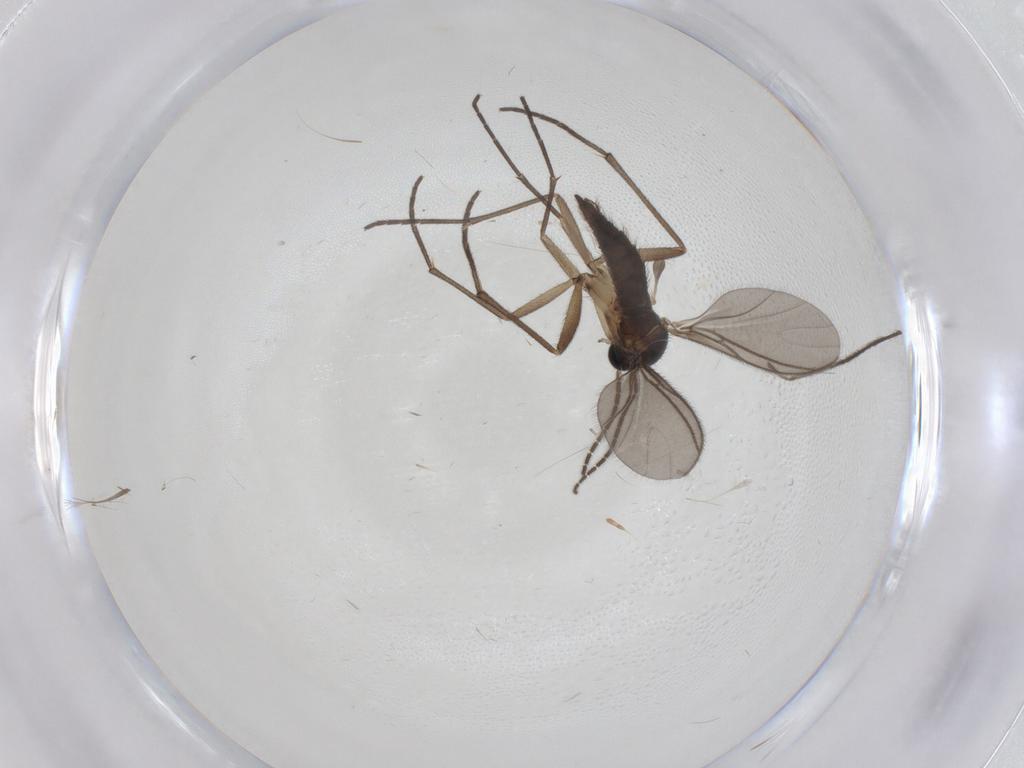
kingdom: Animalia
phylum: Arthropoda
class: Insecta
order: Diptera
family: Sciaridae
